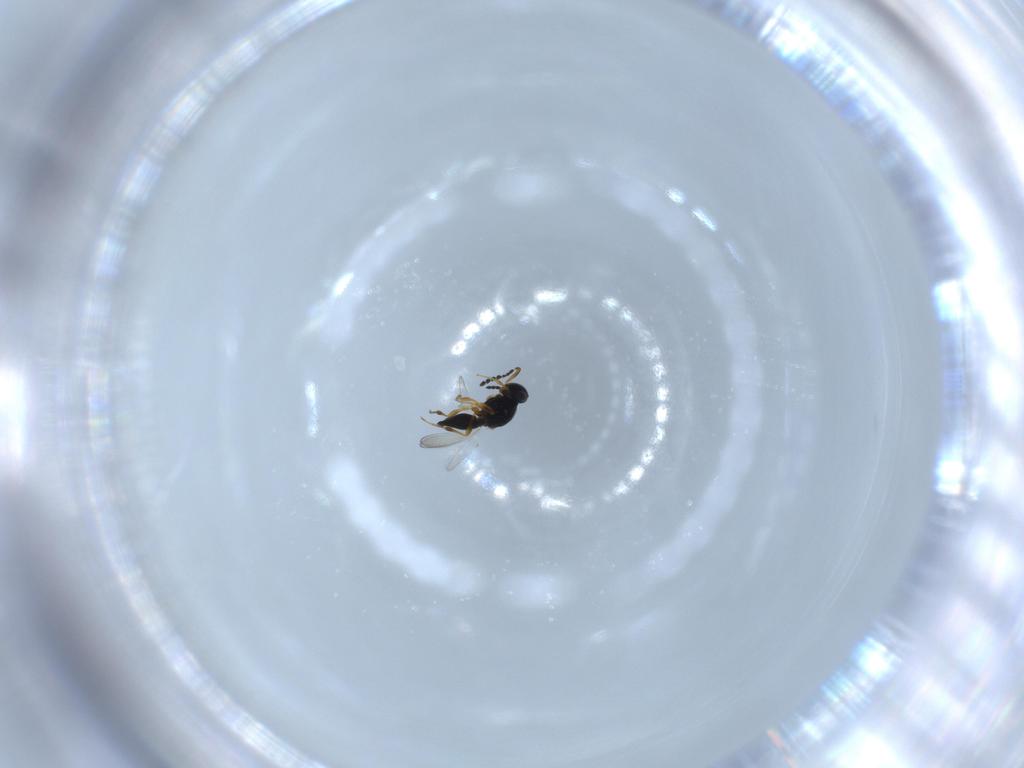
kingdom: Animalia
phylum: Arthropoda
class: Insecta
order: Hymenoptera
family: Platygastridae
